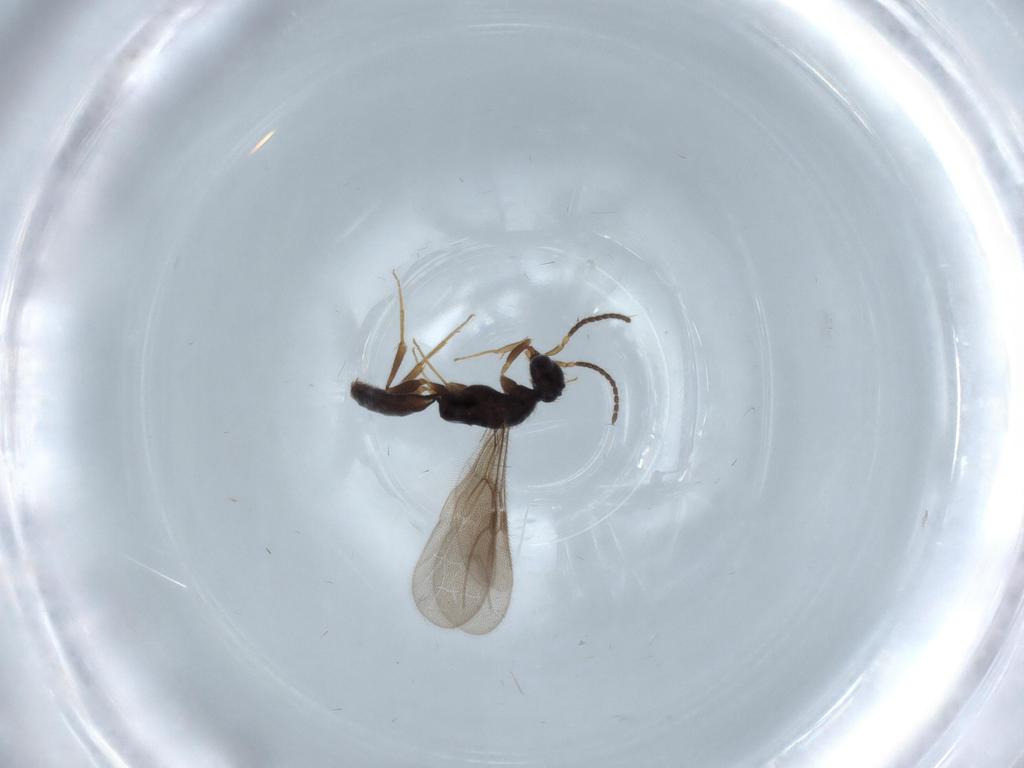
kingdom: Animalia
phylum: Arthropoda
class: Insecta
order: Hymenoptera
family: Bethylidae
